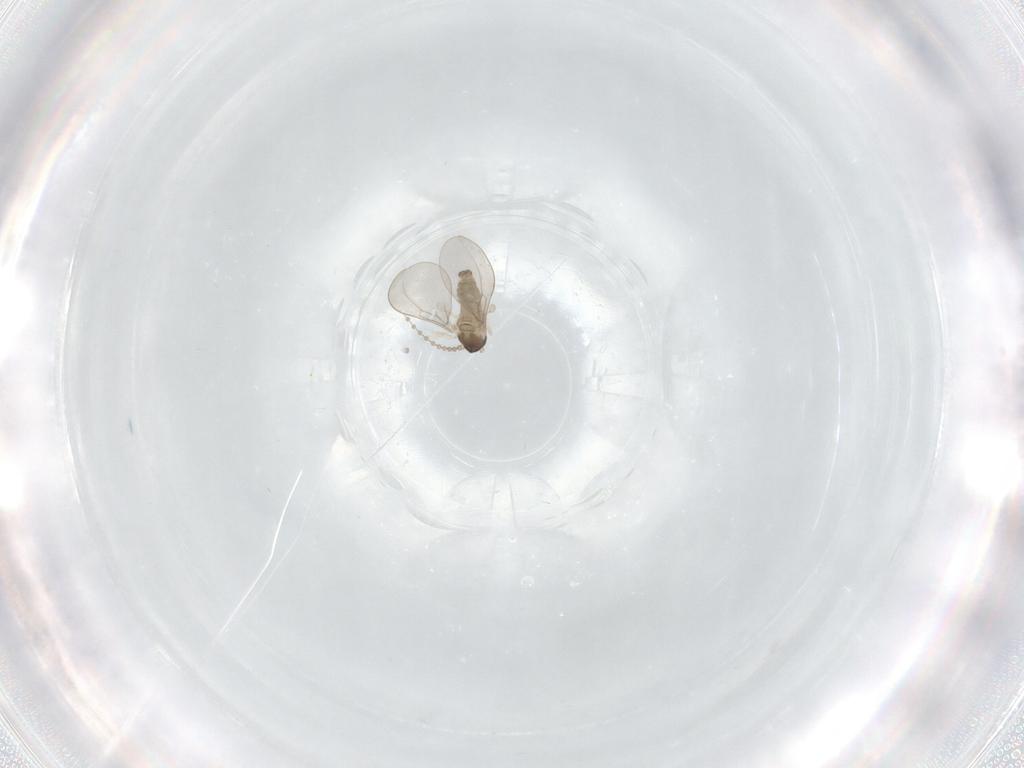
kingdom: Animalia
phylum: Arthropoda
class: Insecta
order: Diptera
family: Cecidomyiidae
